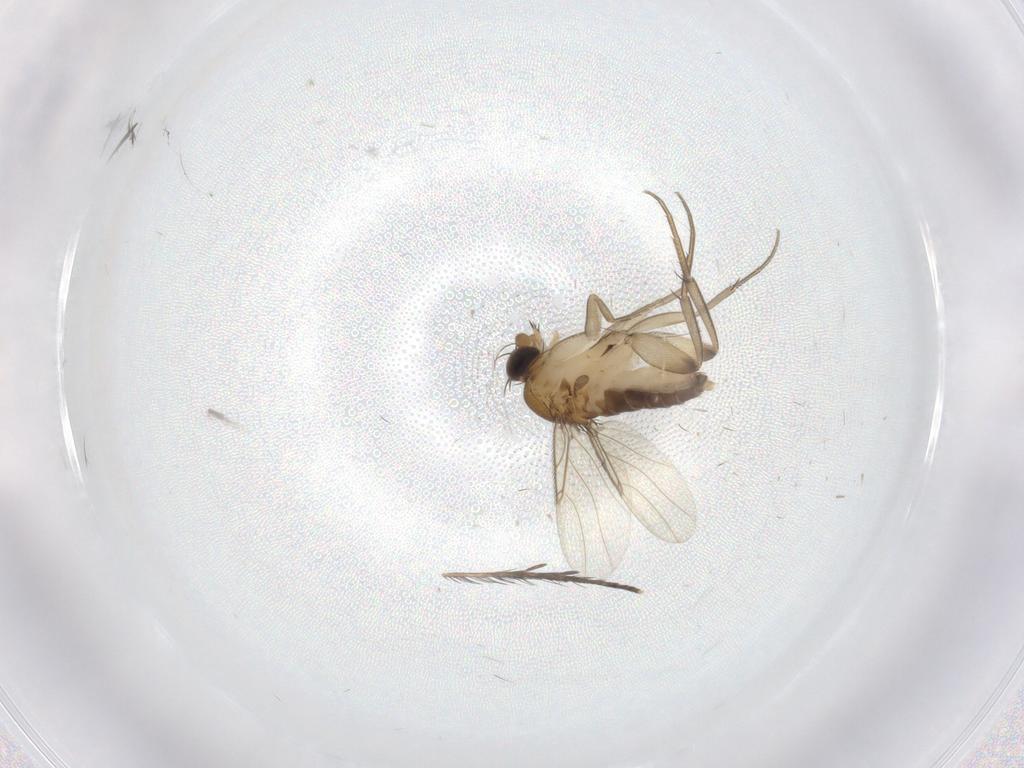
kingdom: Animalia
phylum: Arthropoda
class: Insecta
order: Diptera
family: Phoridae
